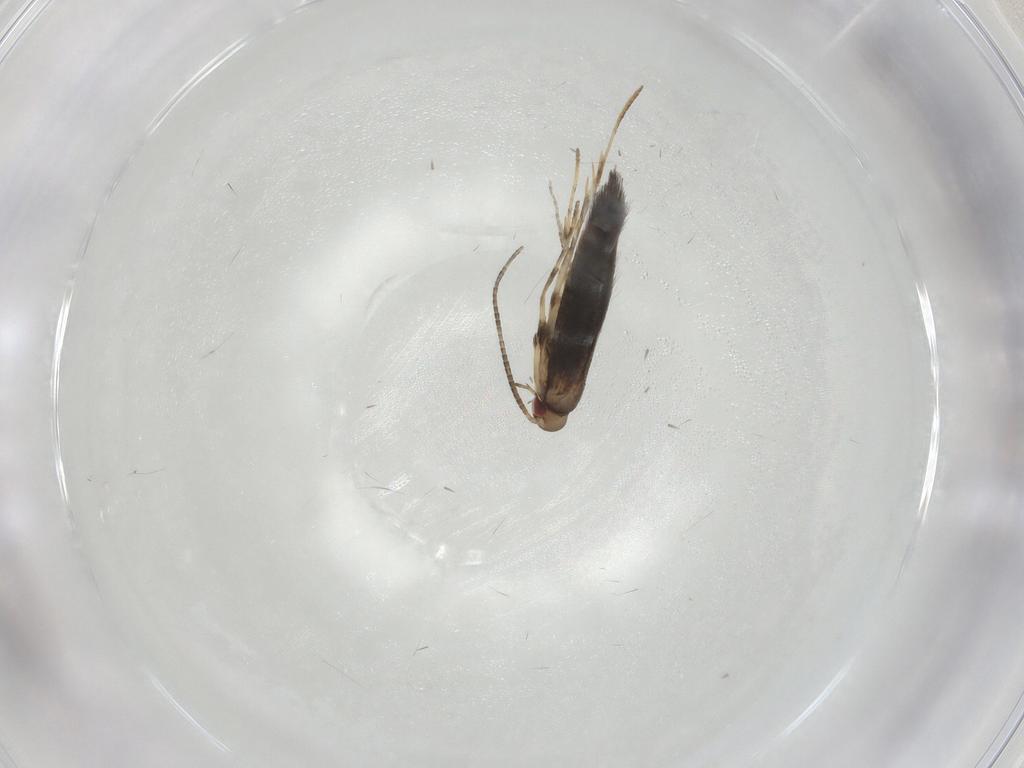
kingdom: Animalia
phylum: Arthropoda
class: Insecta
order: Lepidoptera
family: Gracillariidae
